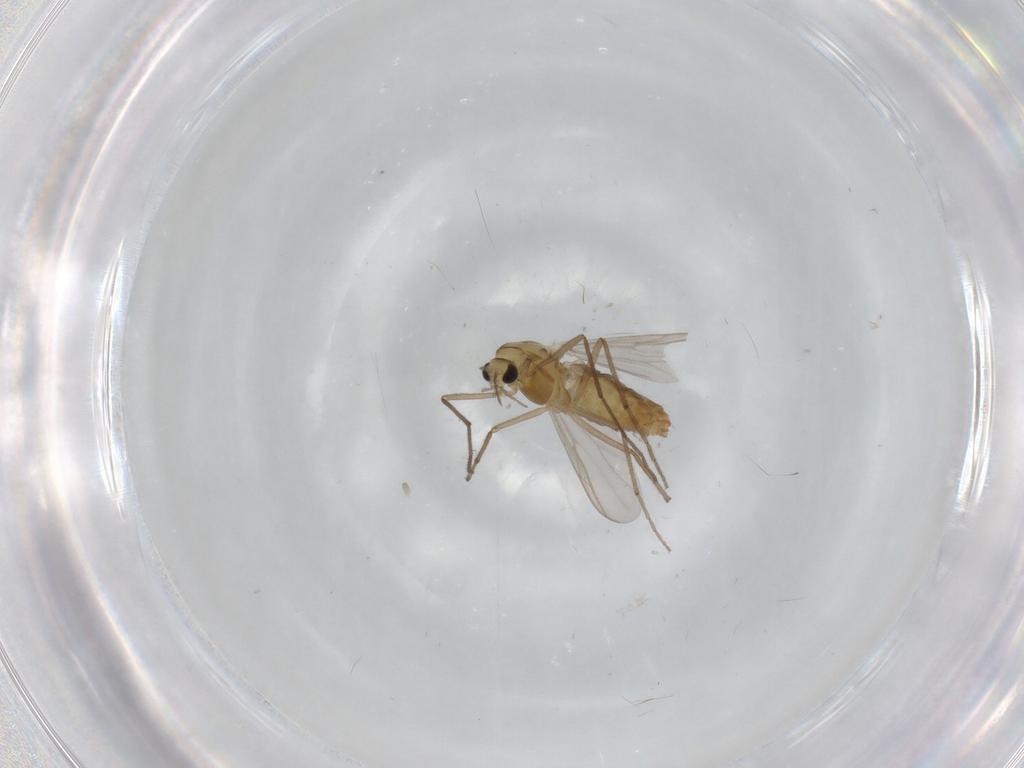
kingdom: Animalia
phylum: Arthropoda
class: Insecta
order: Diptera
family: Chironomidae
